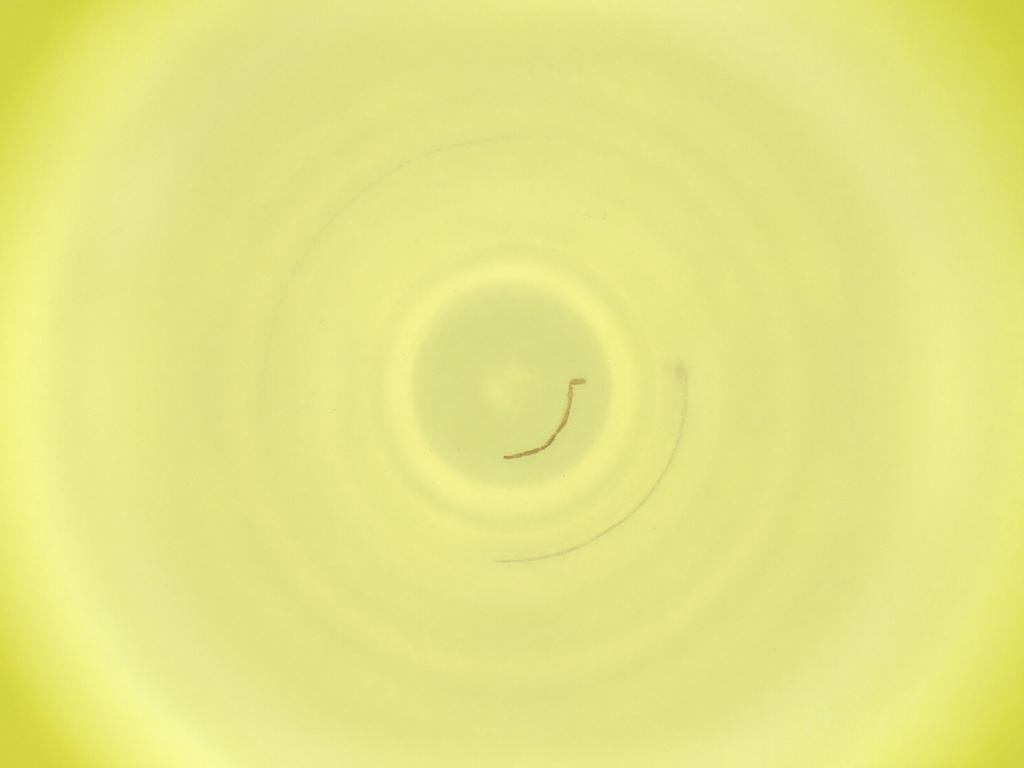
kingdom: Animalia
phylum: Arthropoda
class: Insecta
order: Diptera
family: Cecidomyiidae
